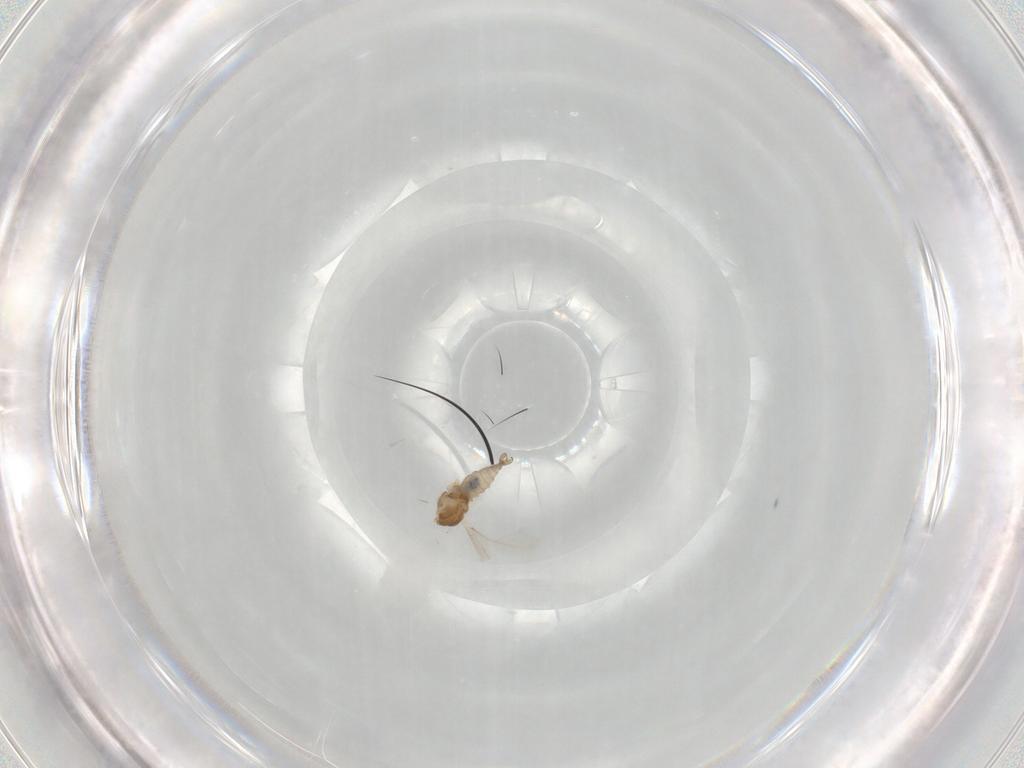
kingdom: Animalia
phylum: Arthropoda
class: Insecta
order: Diptera
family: Cecidomyiidae
